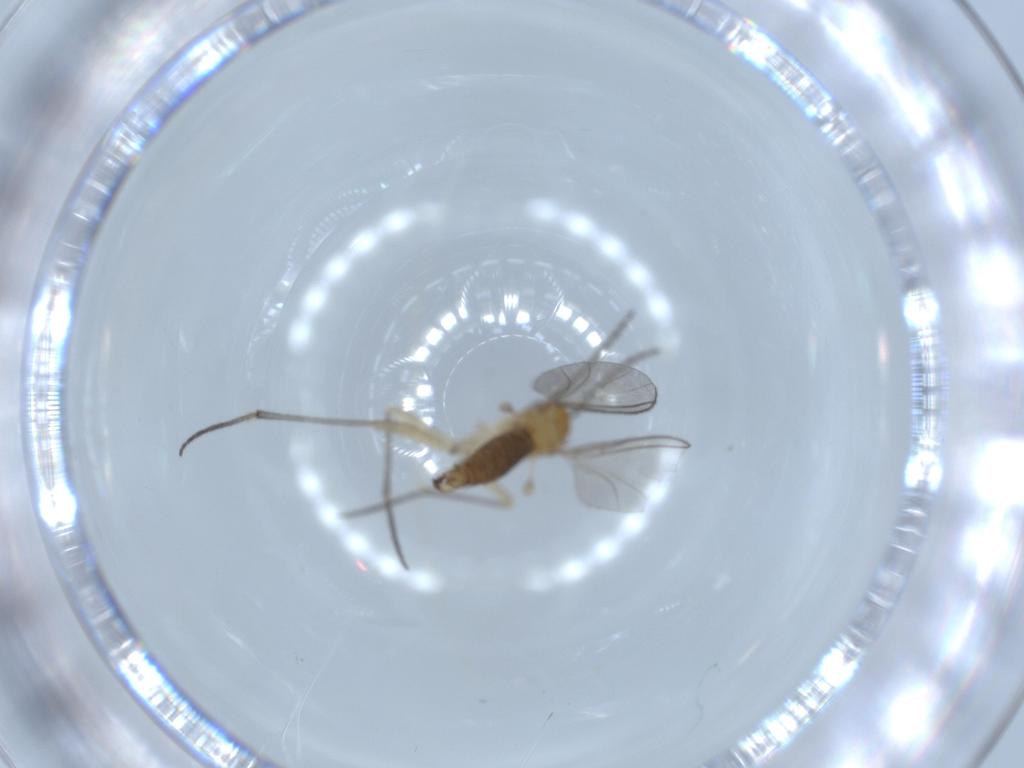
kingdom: Animalia
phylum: Arthropoda
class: Insecta
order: Diptera
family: Sciaridae
